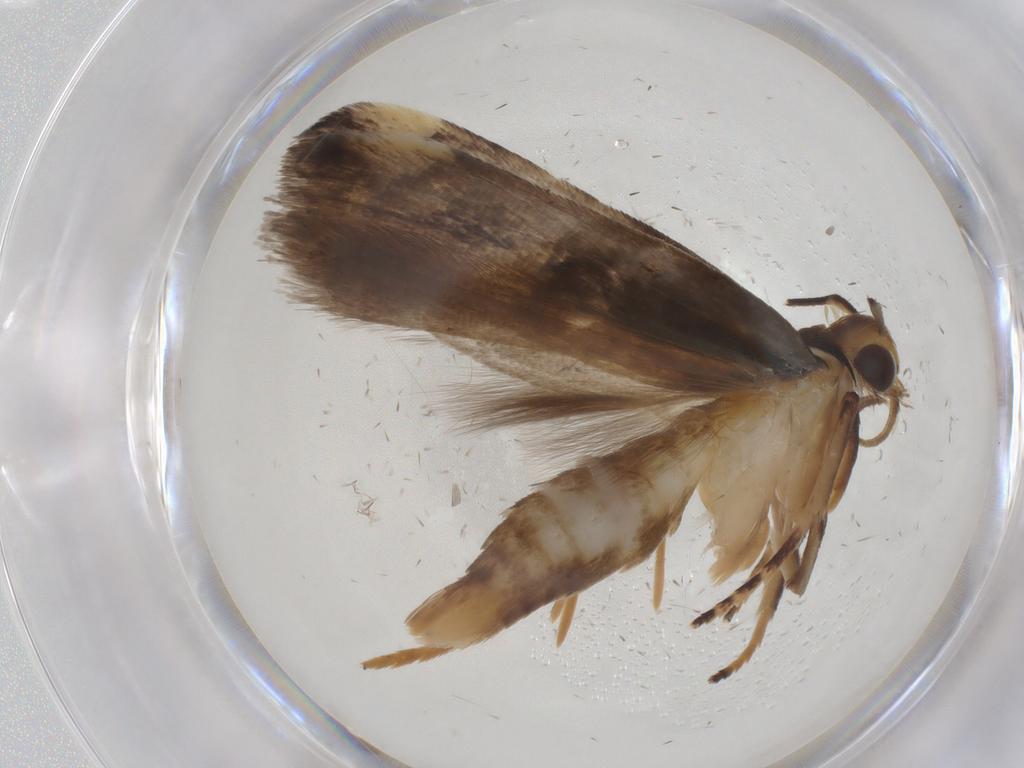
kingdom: Animalia
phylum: Arthropoda
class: Insecta
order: Lepidoptera
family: Gelechiidae
